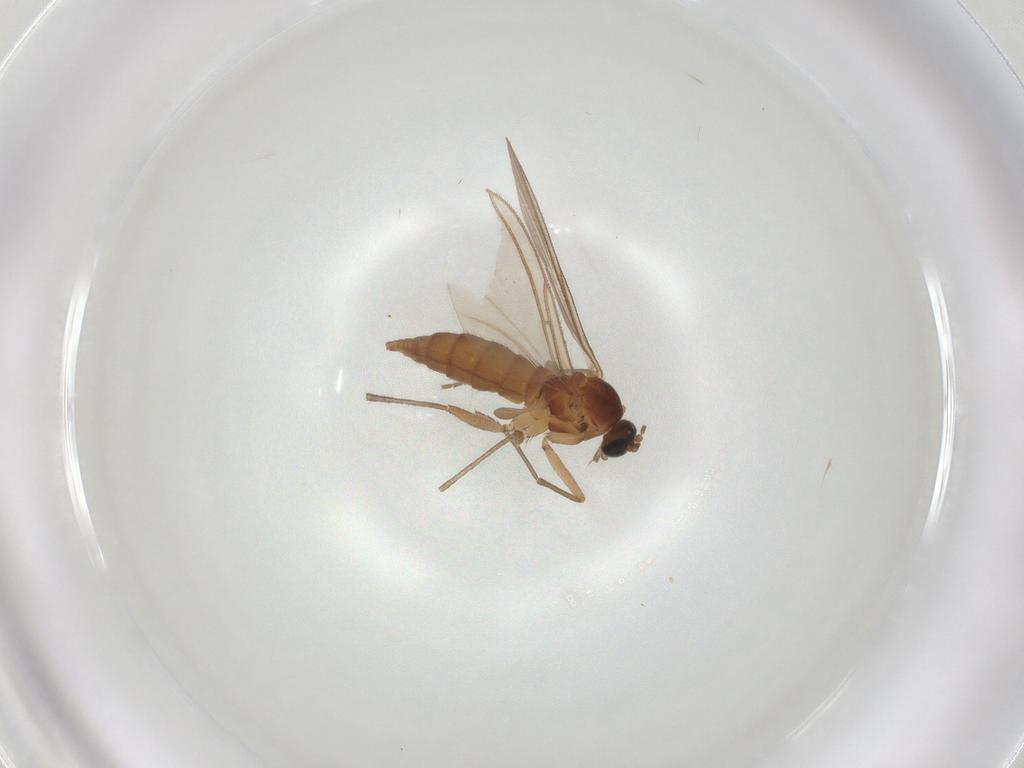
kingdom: Animalia
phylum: Arthropoda
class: Insecta
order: Diptera
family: Sciaridae
